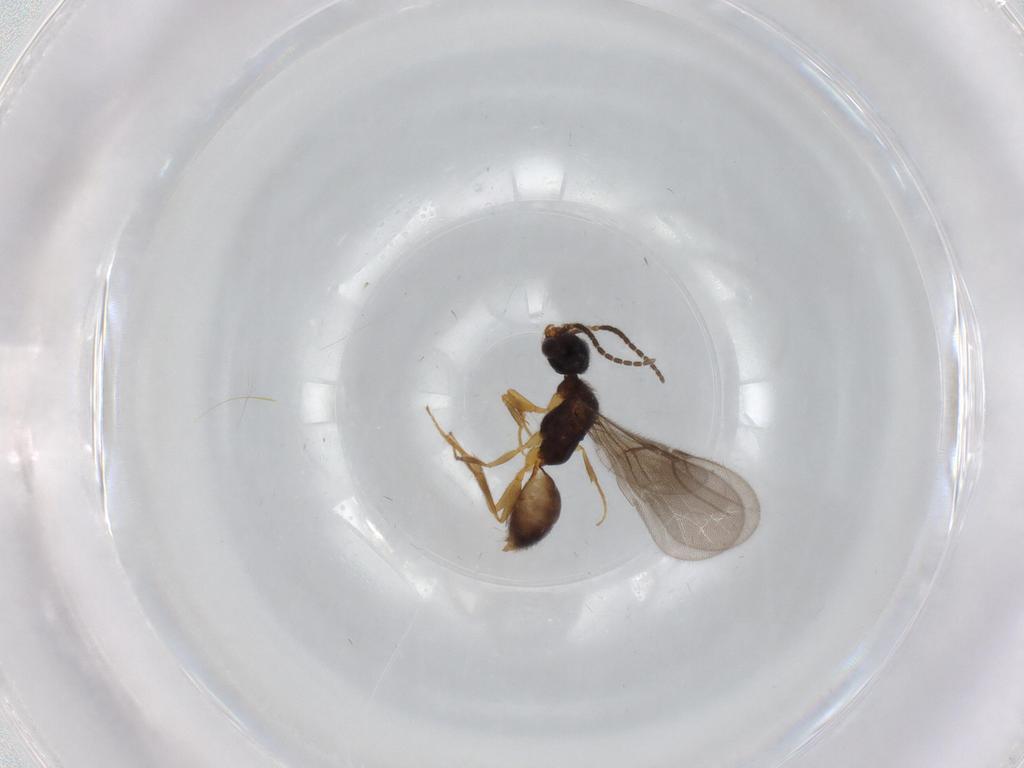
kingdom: Animalia
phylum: Arthropoda
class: Insecta
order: Hymenoptera
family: Bethylidae
